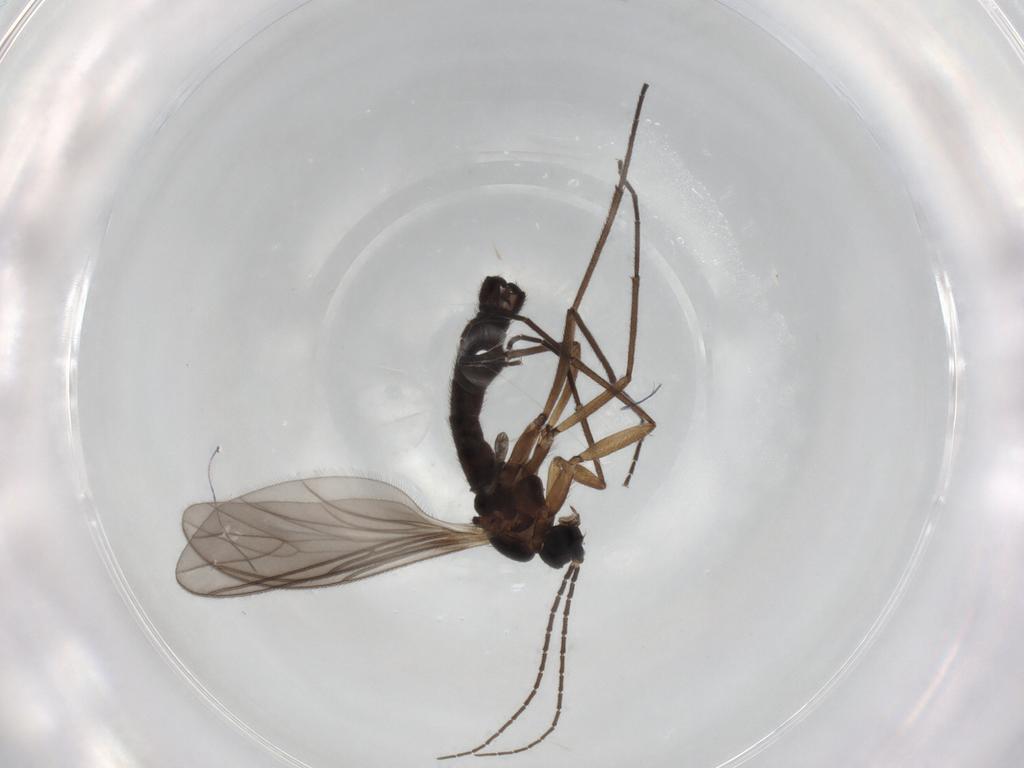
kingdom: Animalia
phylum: Arthropoda
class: Insecta
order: Diptera
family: Sciaridae
